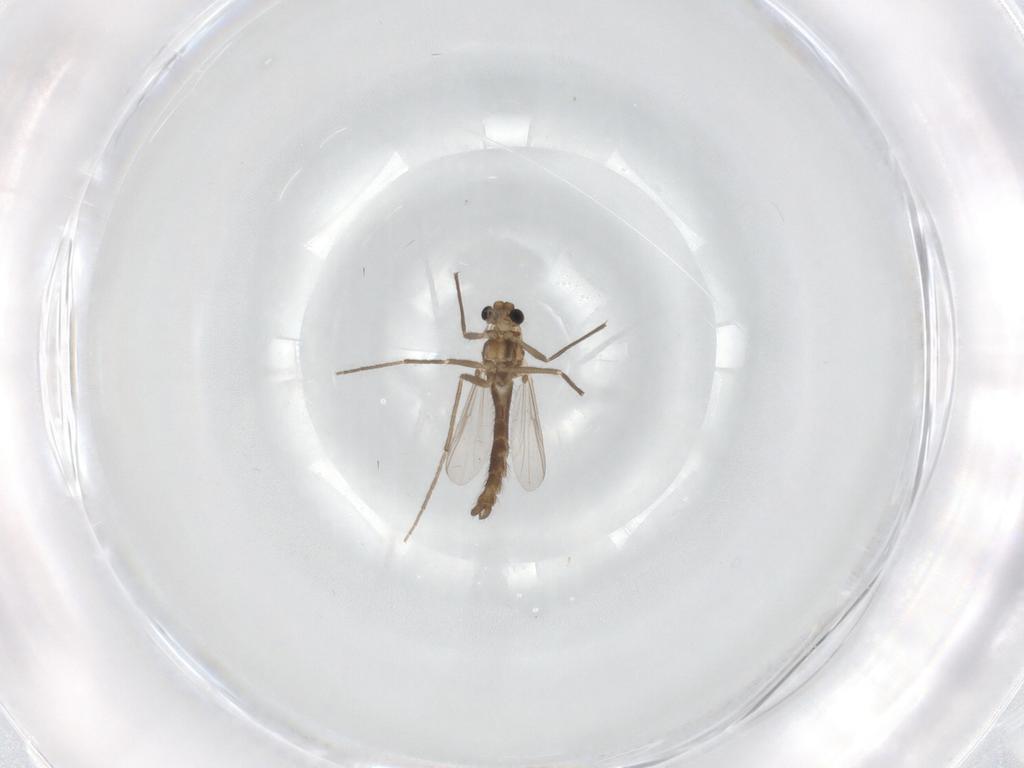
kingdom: Animalia
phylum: Arthropoda
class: Insecta
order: Diptera
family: Chironomidae
